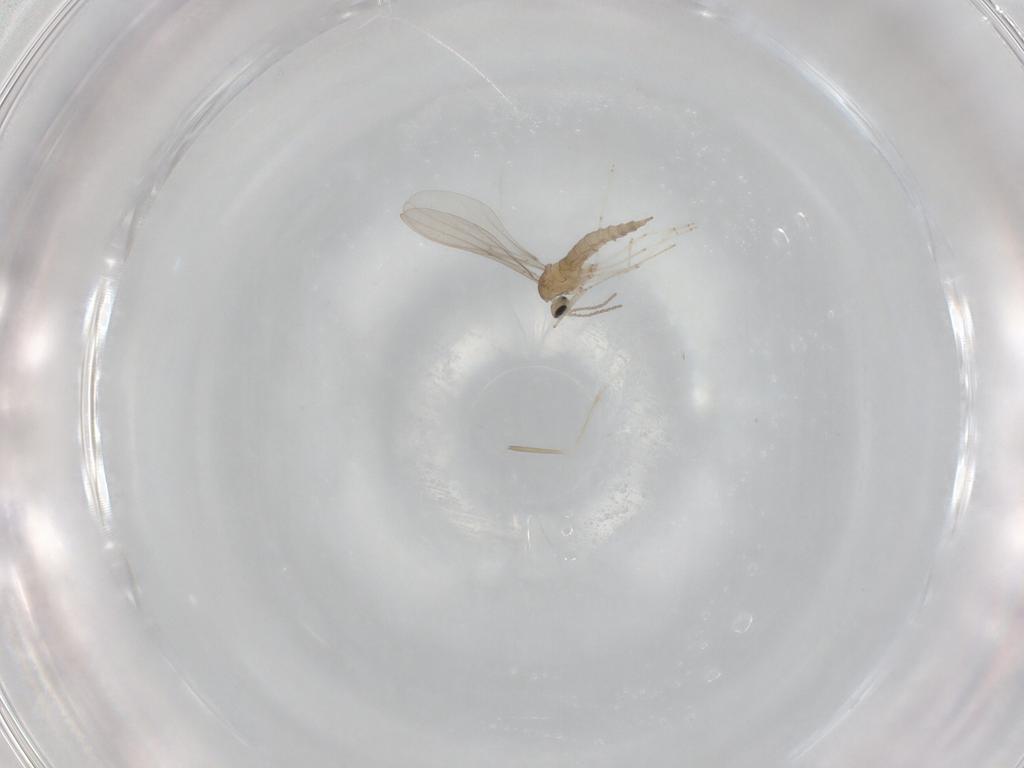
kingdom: Animalia
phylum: Arthropoda
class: Insecta
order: Diptera
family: Cecidomyiidae
